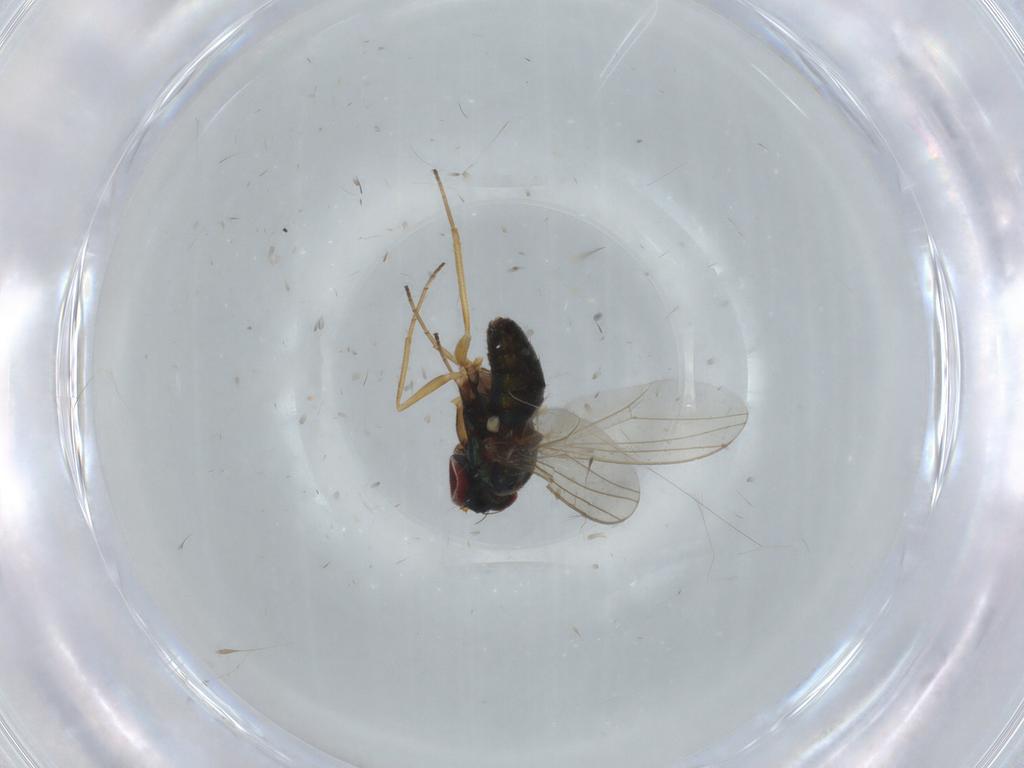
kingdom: Animalia
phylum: Arthropoda
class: Insecta
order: Diptera
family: Dolichopodidae
